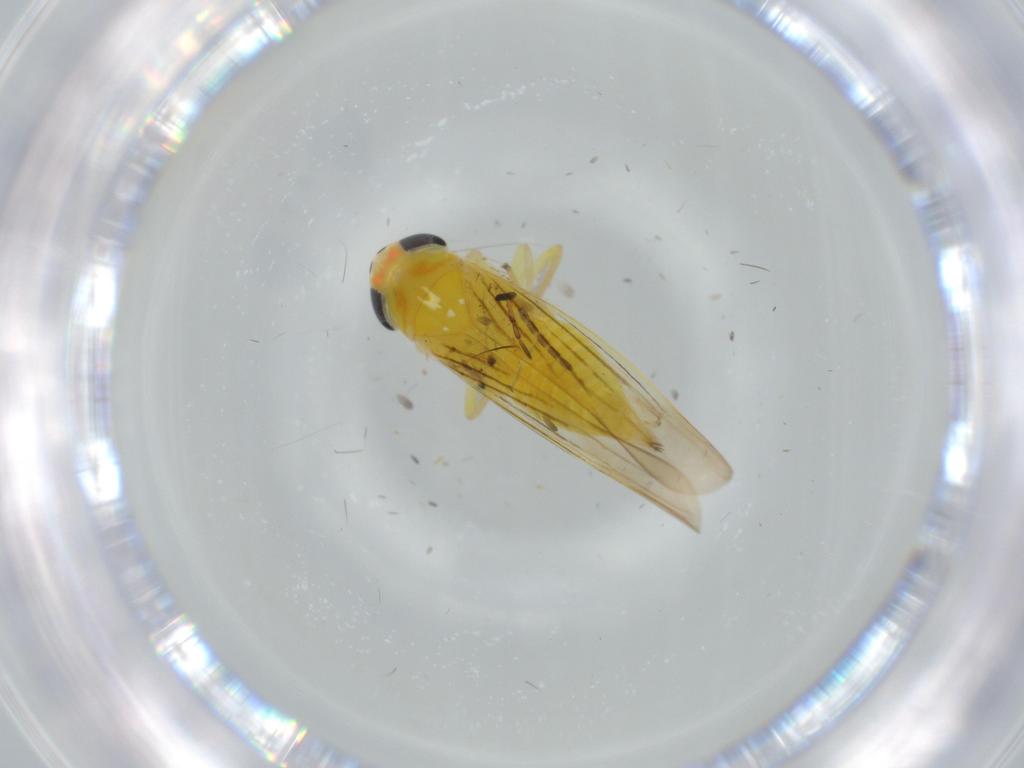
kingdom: Animalia
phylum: Arthropoda
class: Insecta
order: Hemiptera
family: Cicadellidae
